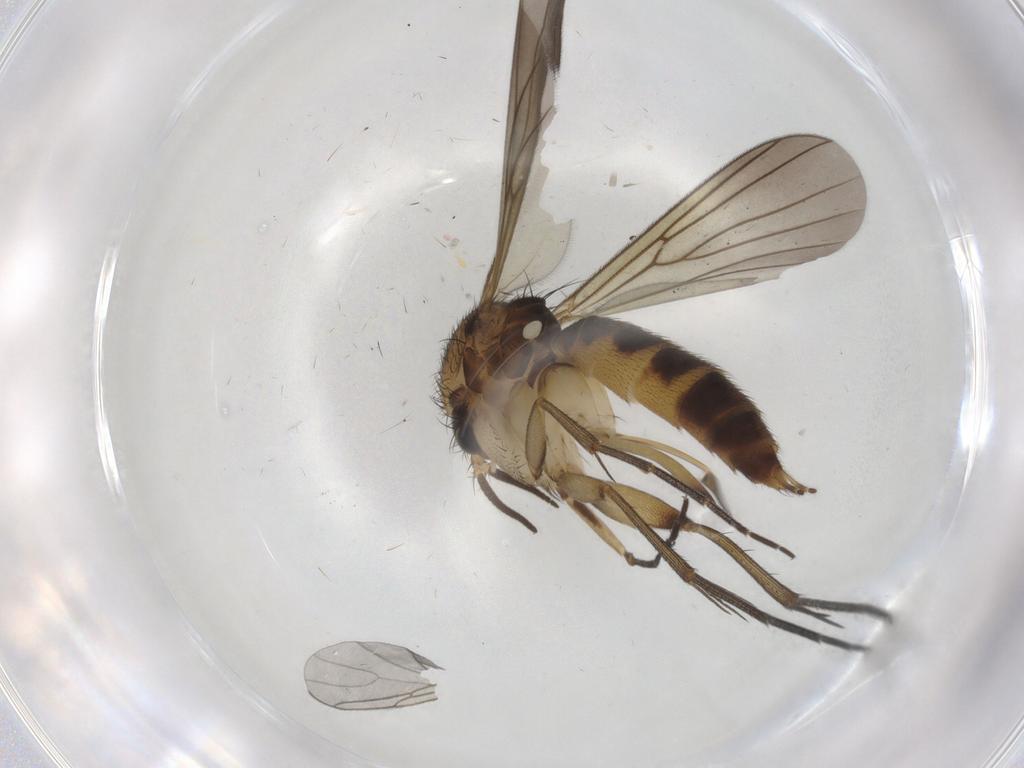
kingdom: Animalia
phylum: Arthropoda
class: Insecta
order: Diptera
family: Mycetophilidae
